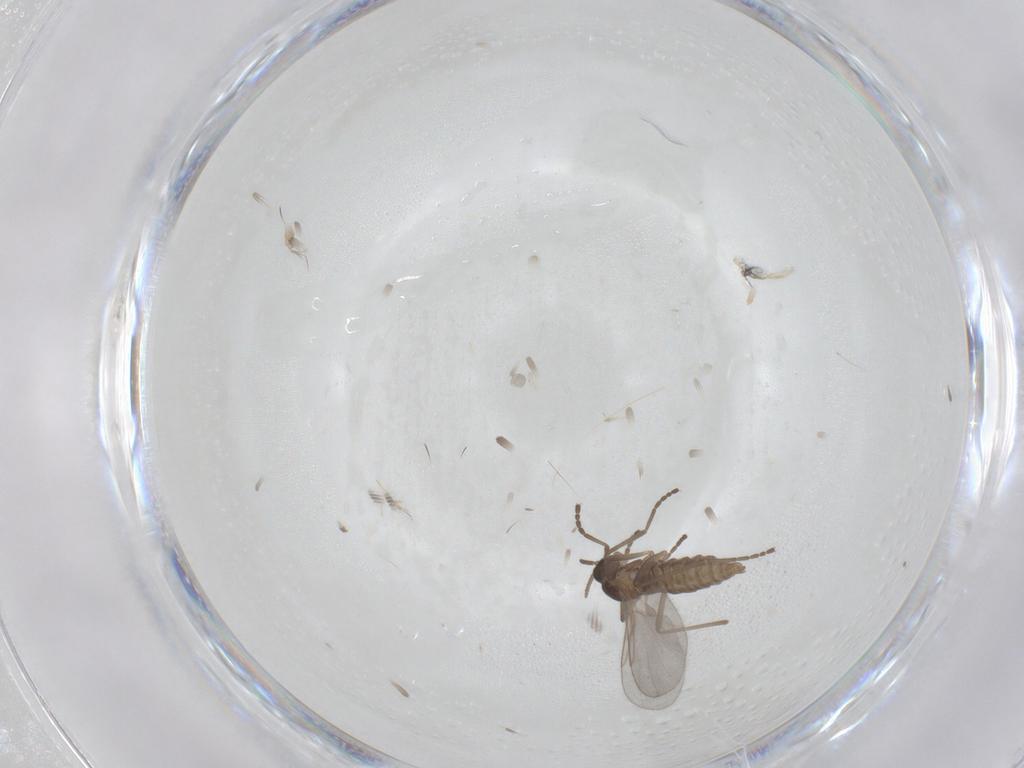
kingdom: Animalia
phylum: Arthropoda
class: Insecta
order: Diptera
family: Cecidomyiidae
